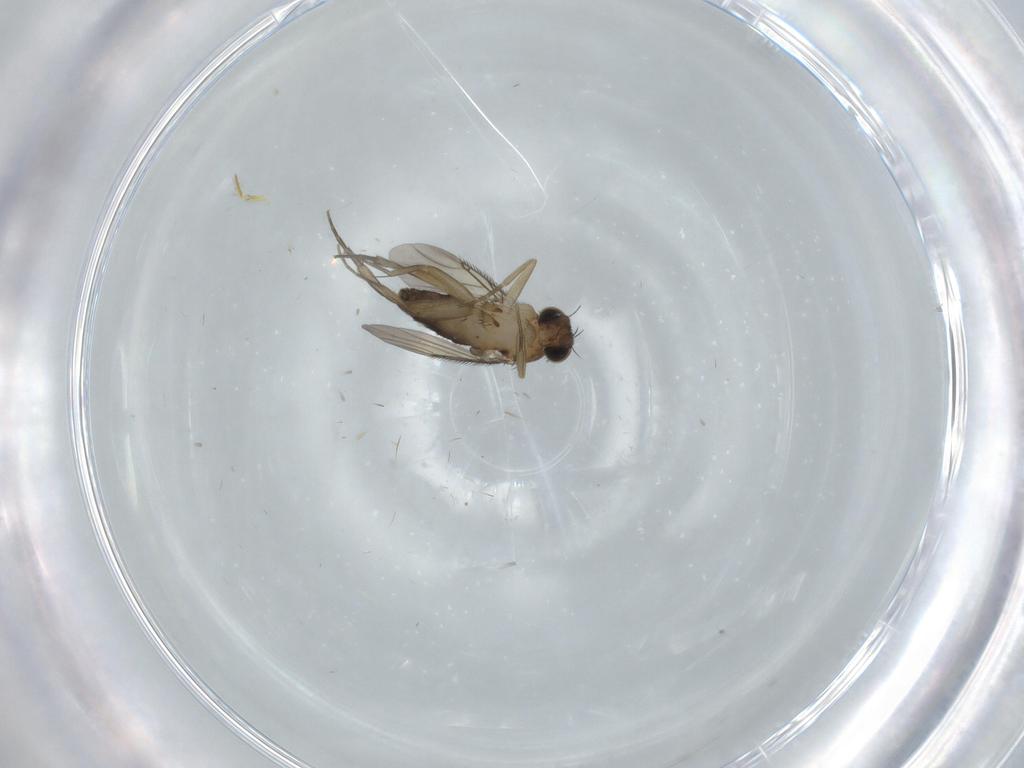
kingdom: Animalia
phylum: Arthropoda
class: Insecta
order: Diptera
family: Phoridae
